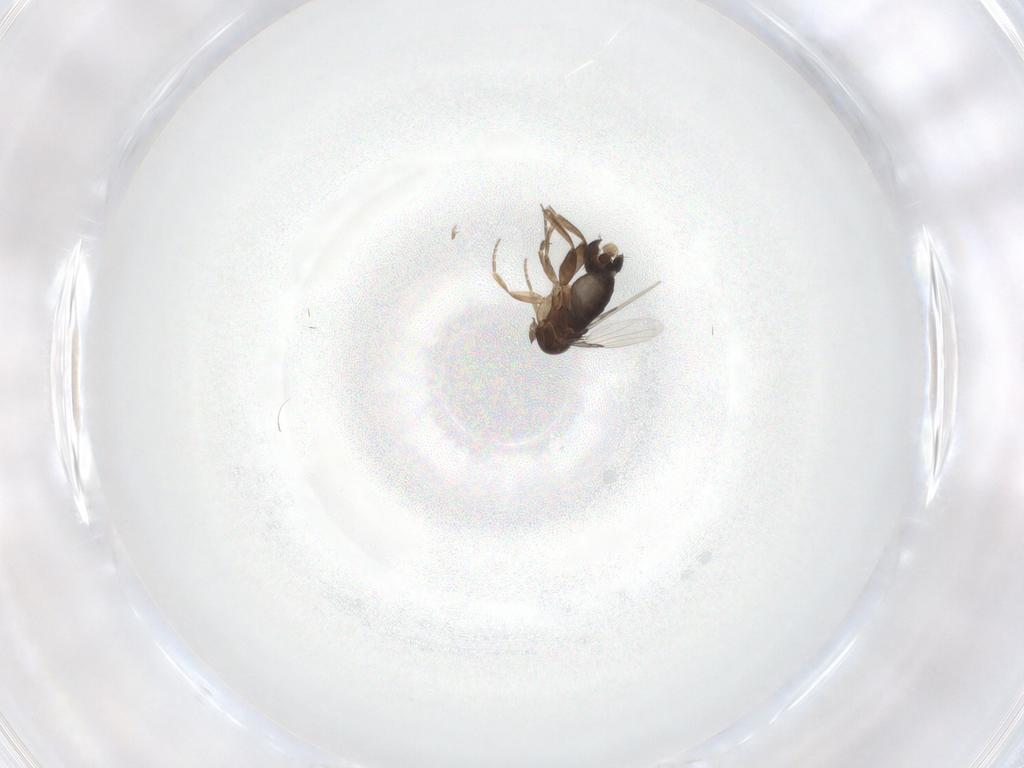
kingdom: Animalia
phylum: Arthropoda
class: Insecta
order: Diptera
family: Phoridae
